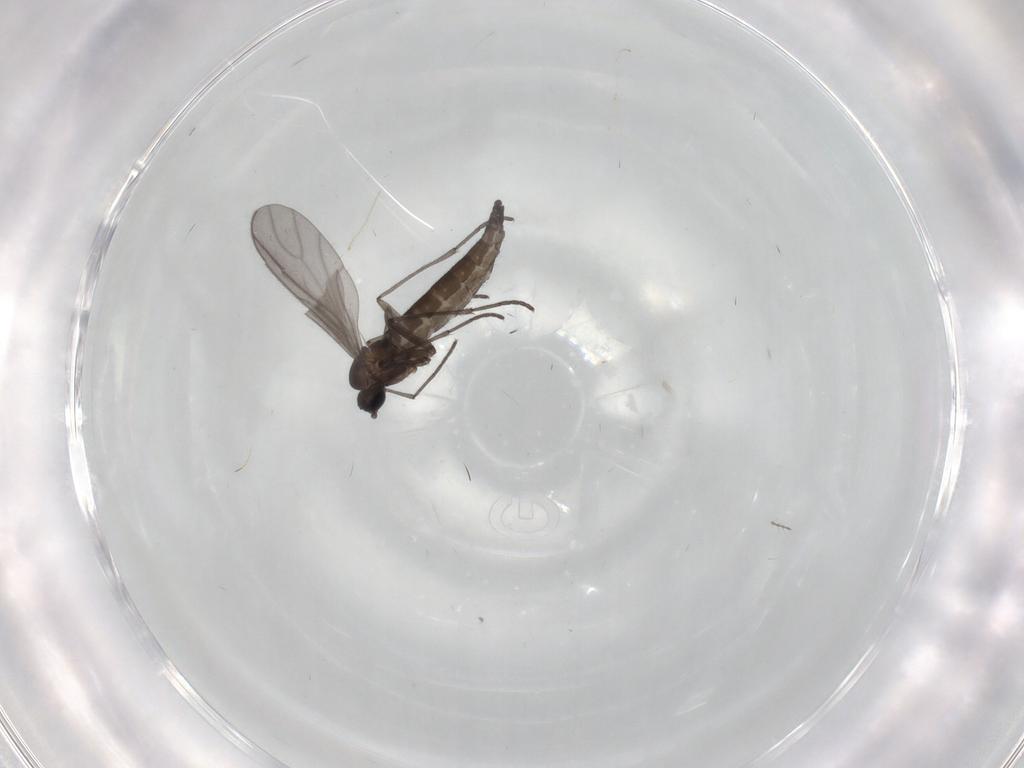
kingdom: Animalia
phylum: Arthropoda
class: Insecta
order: Diptera
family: Sciaridae
